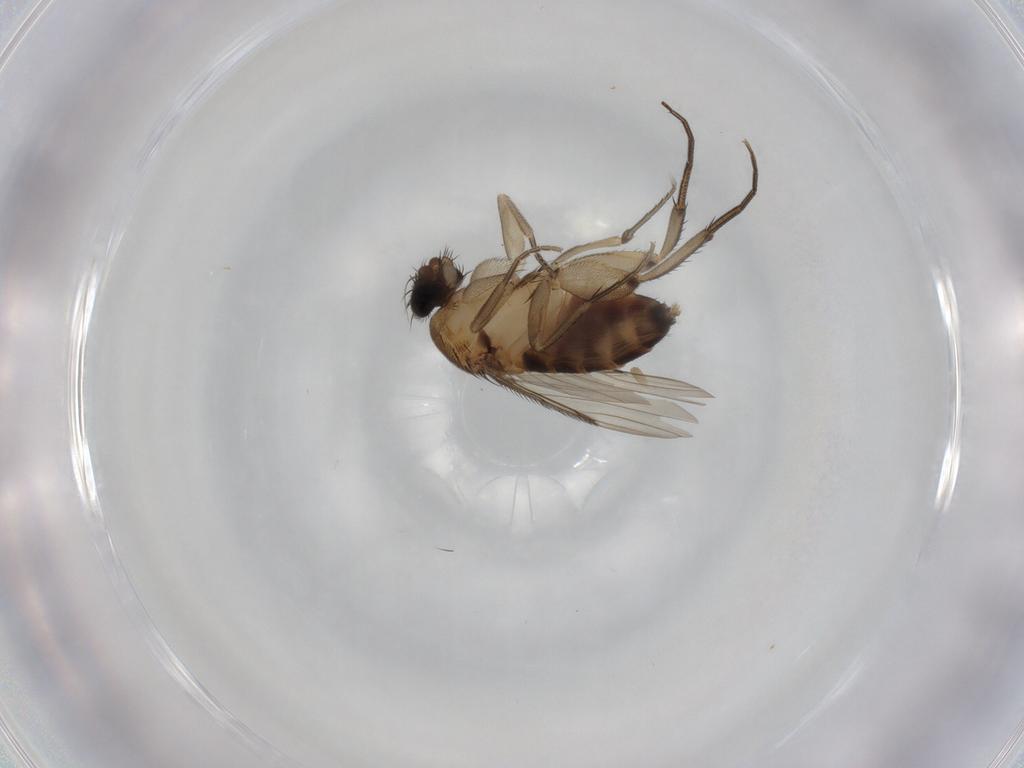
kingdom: Animalia
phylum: Arthropoda
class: Insecta
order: Diptera
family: Phoridae
